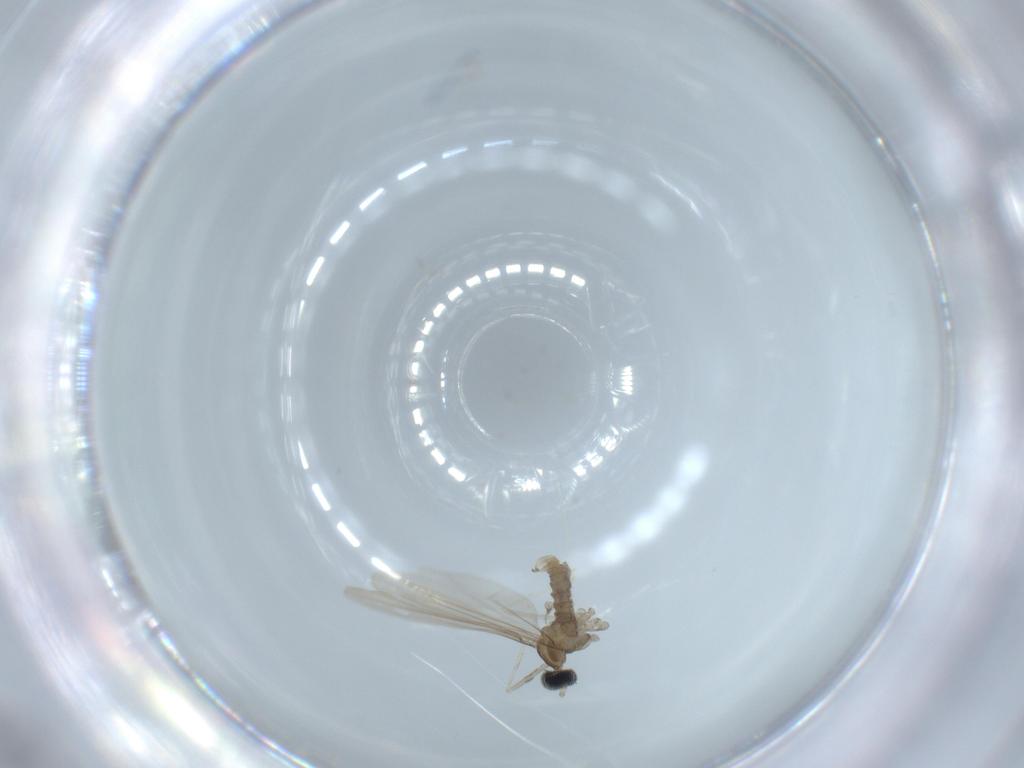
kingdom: Animalia
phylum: Arthropoda
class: Insecta
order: Diptera
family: Cecidomyiidae
